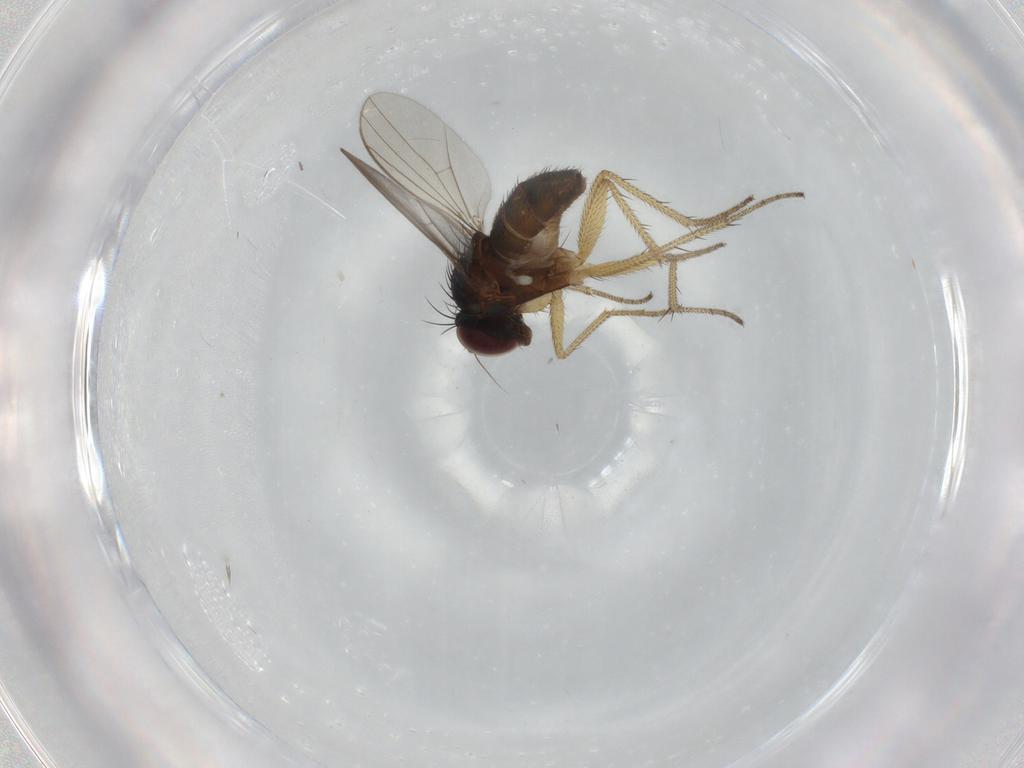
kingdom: Animalia
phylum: Arthropoda
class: Insecta
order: Diptera
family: Dolichopodidae
